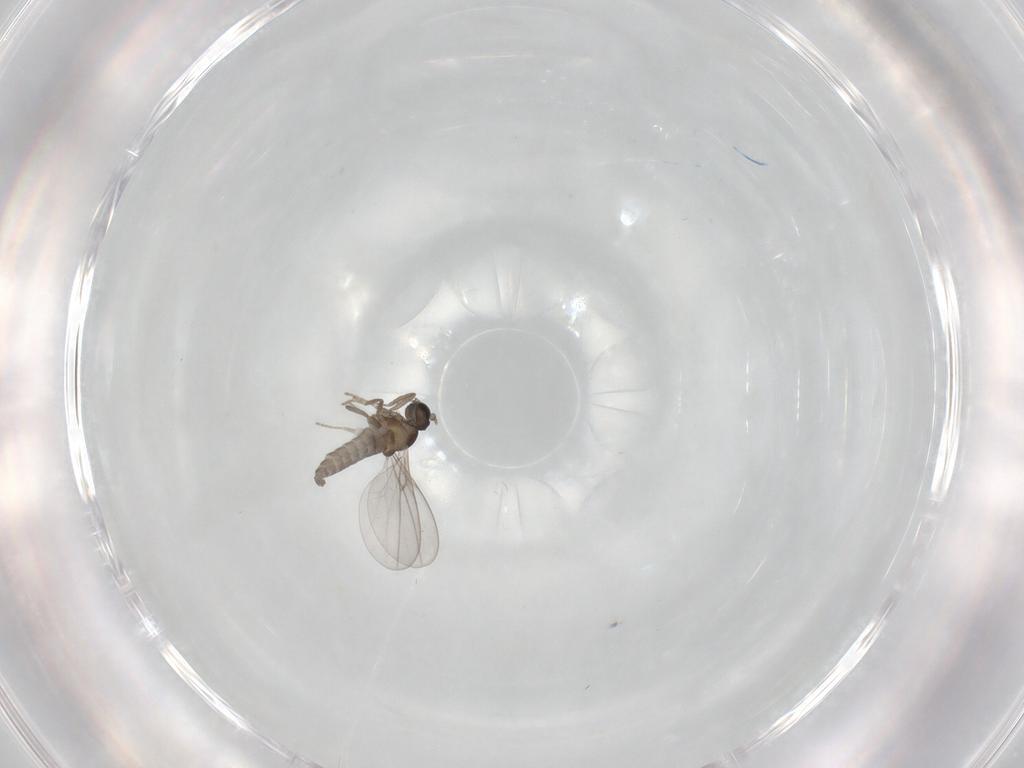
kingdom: Animalia
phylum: Arthropoda
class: Insecta
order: Diptera
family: Cecidomyiidae
